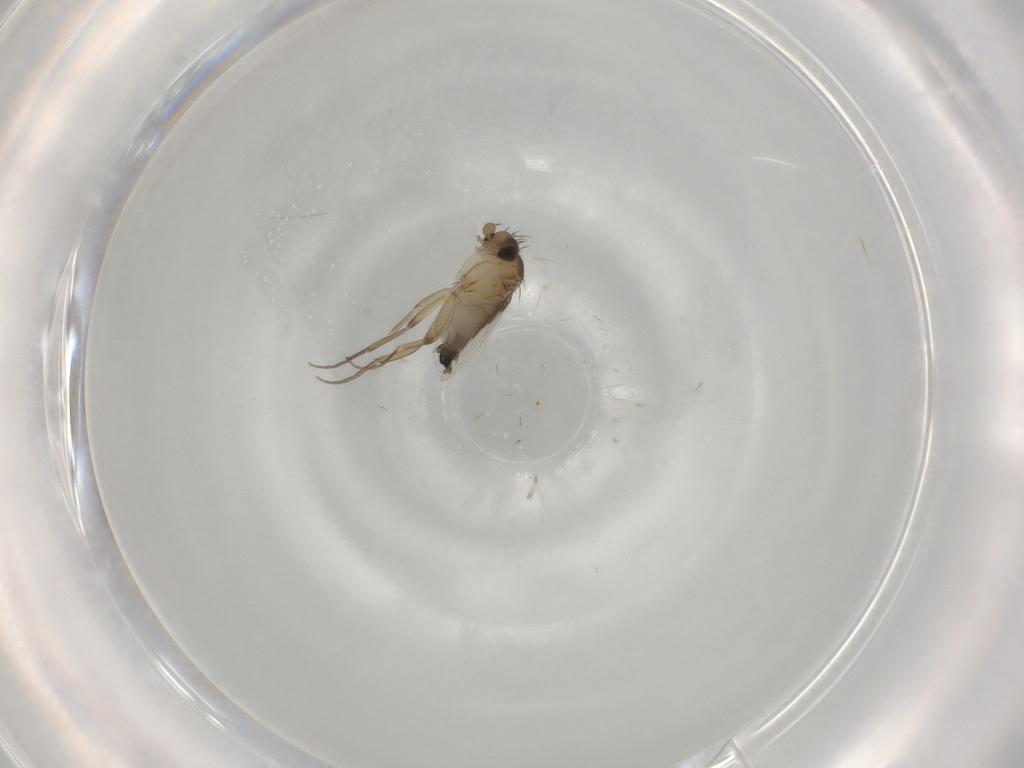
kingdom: Animalia
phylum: Arthropoda
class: Insecta
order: Diptera
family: Phoridae
